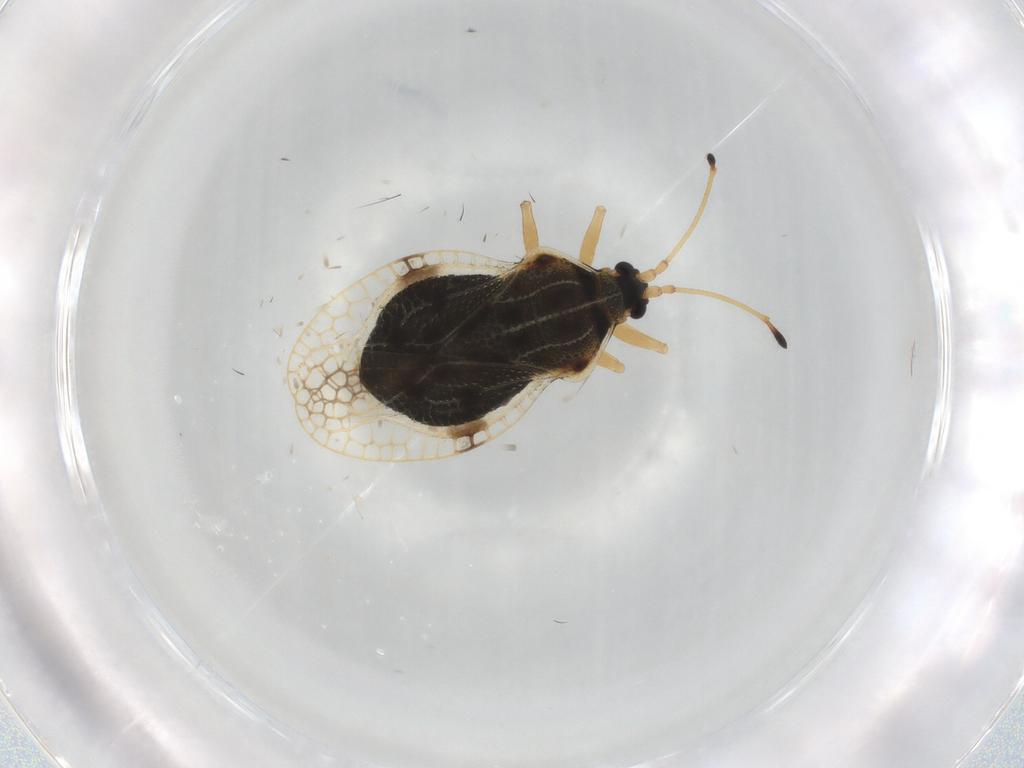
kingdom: Animalia
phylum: Arthropoda
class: Insecta
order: Hemiptera
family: Tingidae
